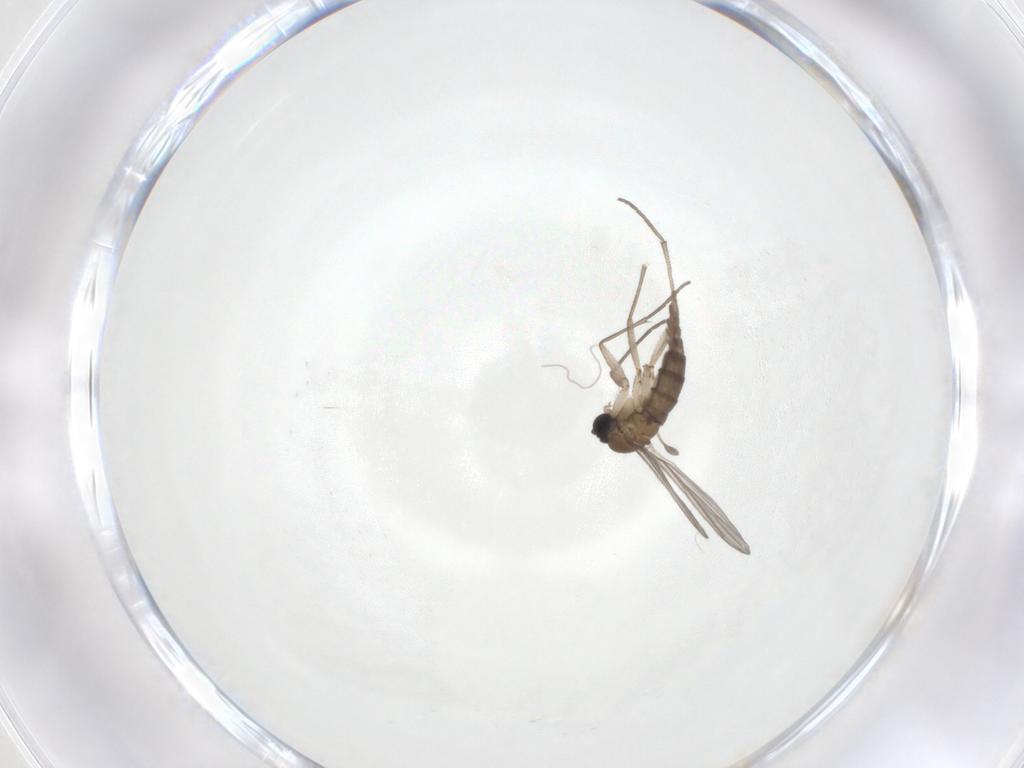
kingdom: Animalia
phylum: Arthropoda
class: Insecta
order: Diptera
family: Sciaridae
